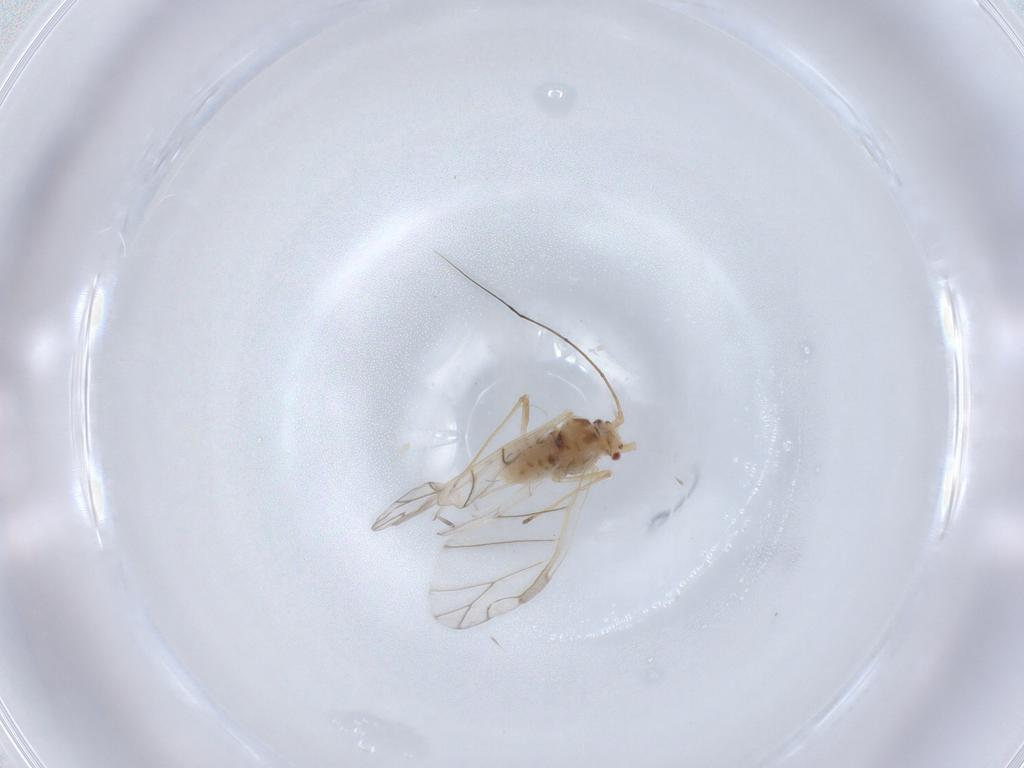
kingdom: Animalia
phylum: Arthropoda
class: Insecta
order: Hemiptera
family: Aphididae
